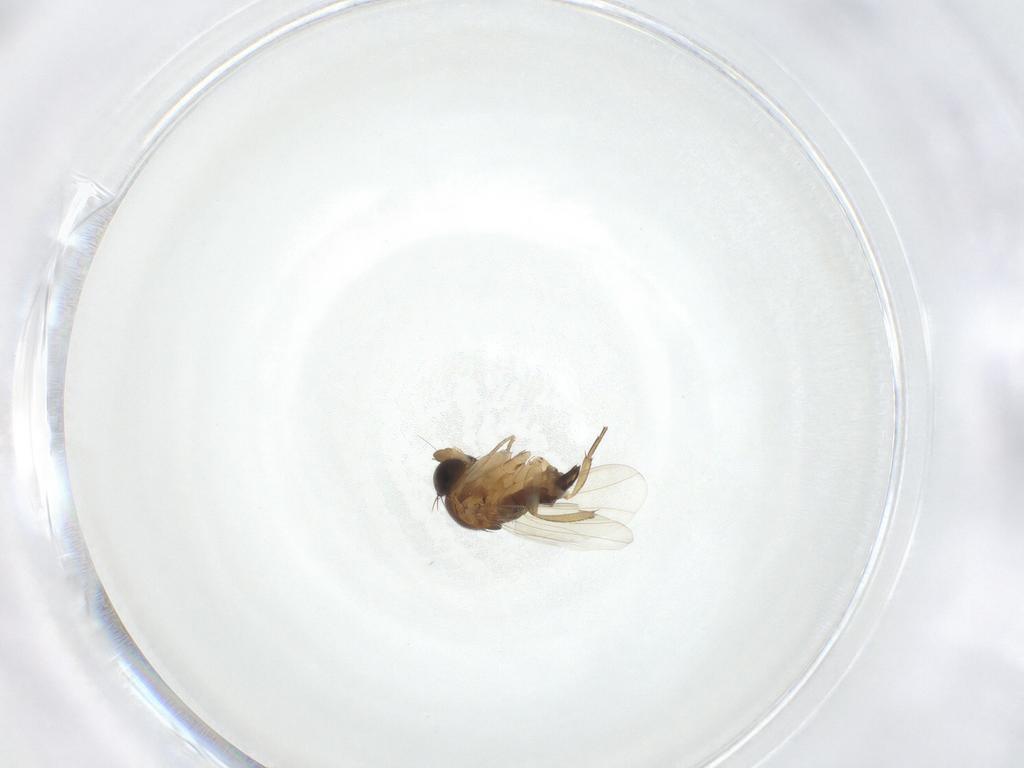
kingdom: Animalia
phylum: Arthropoda
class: Insecta
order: Diptera
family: Phoridae
